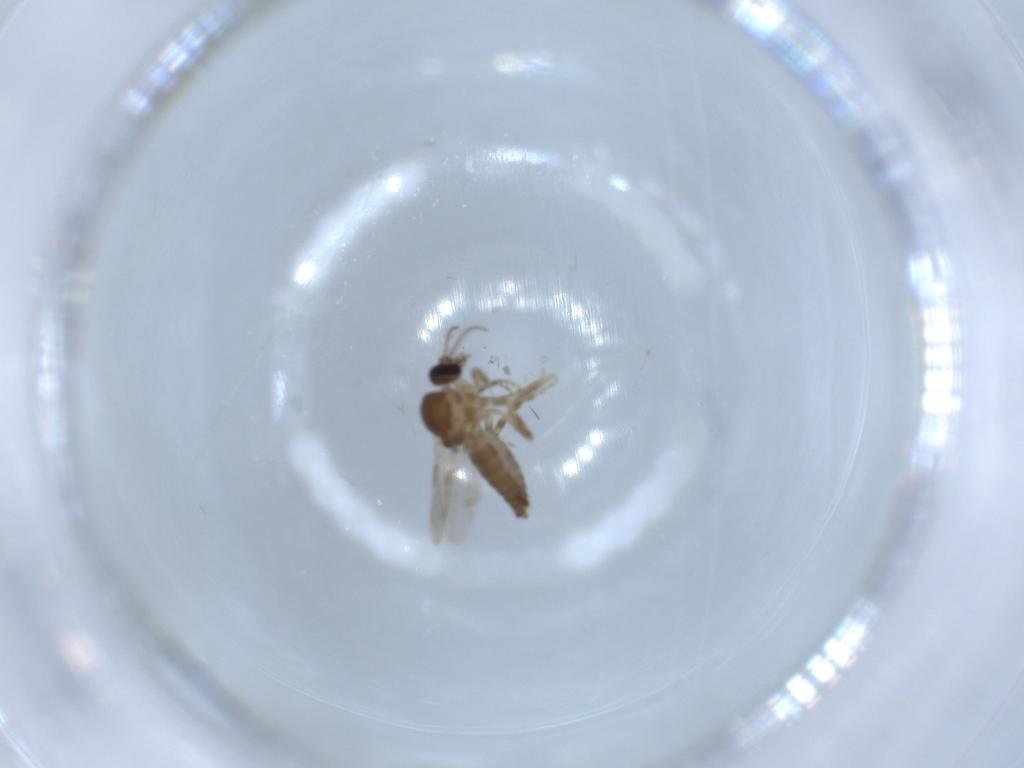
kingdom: Animalia
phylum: Arthropoda
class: Insecta
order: Diptera
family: Ceratopogonidae
